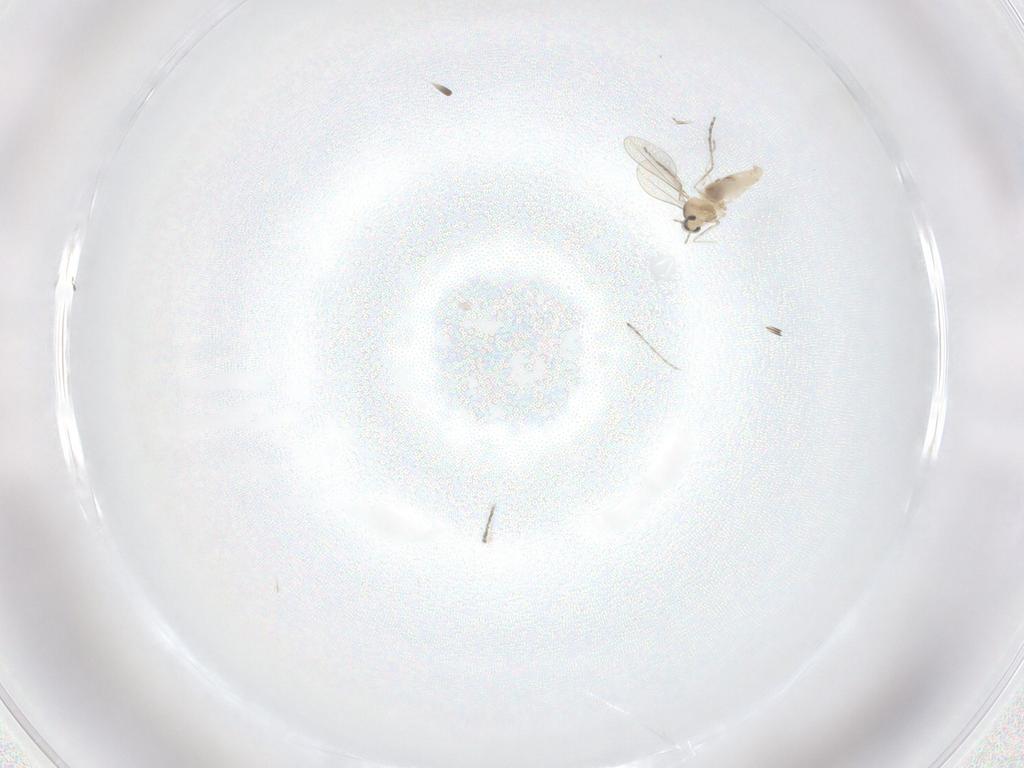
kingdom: Animalia
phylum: Arthropoda
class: Insecta
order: Diptera
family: Cecidomyiidae
